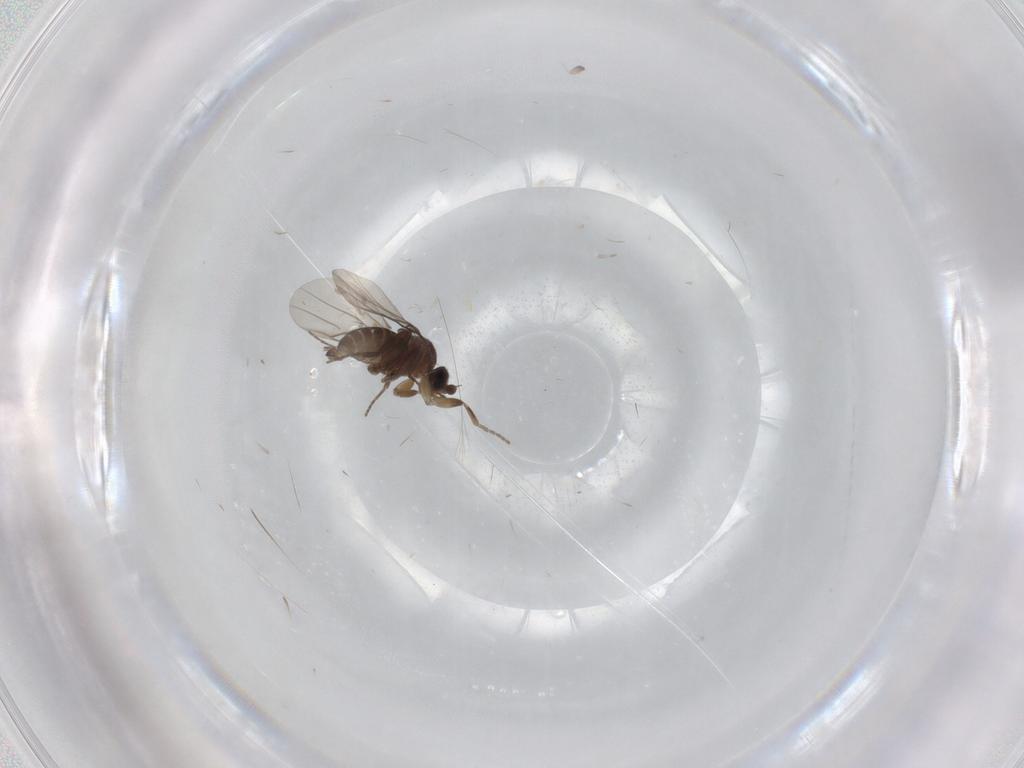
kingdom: Animalia
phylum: Arthropoda
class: Insecta
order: Diptera
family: Cecidomyiidae
